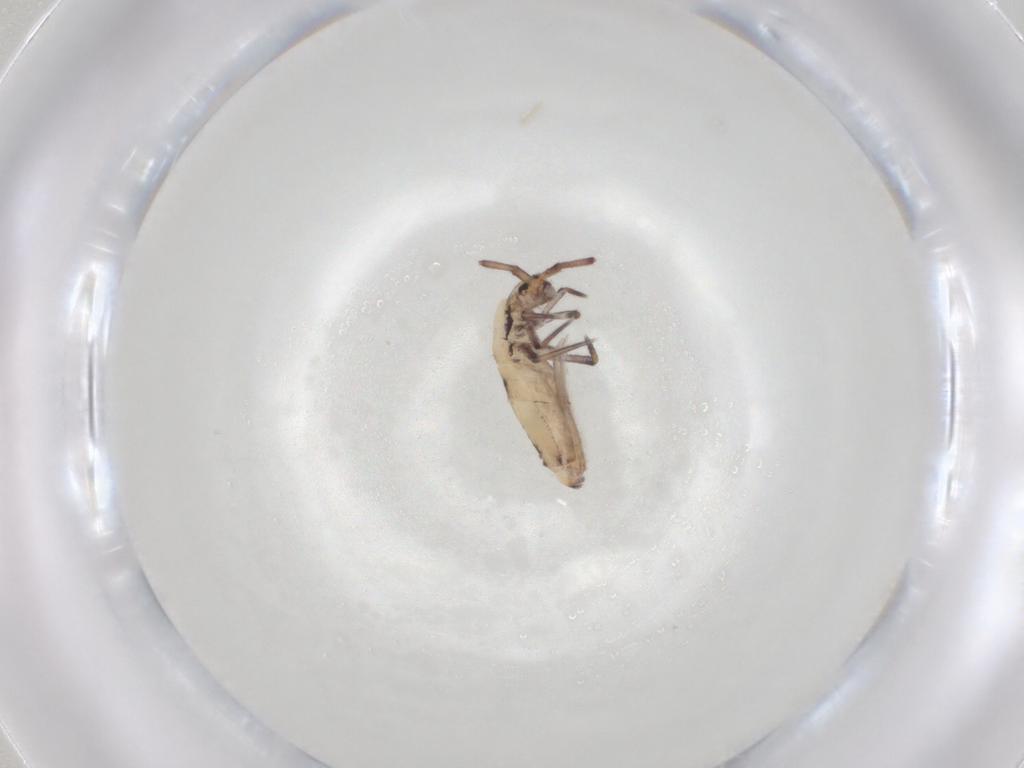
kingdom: Animalia
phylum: Arthropoda
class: Collembola
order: Entomobryomorpha
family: Entomobryidae
